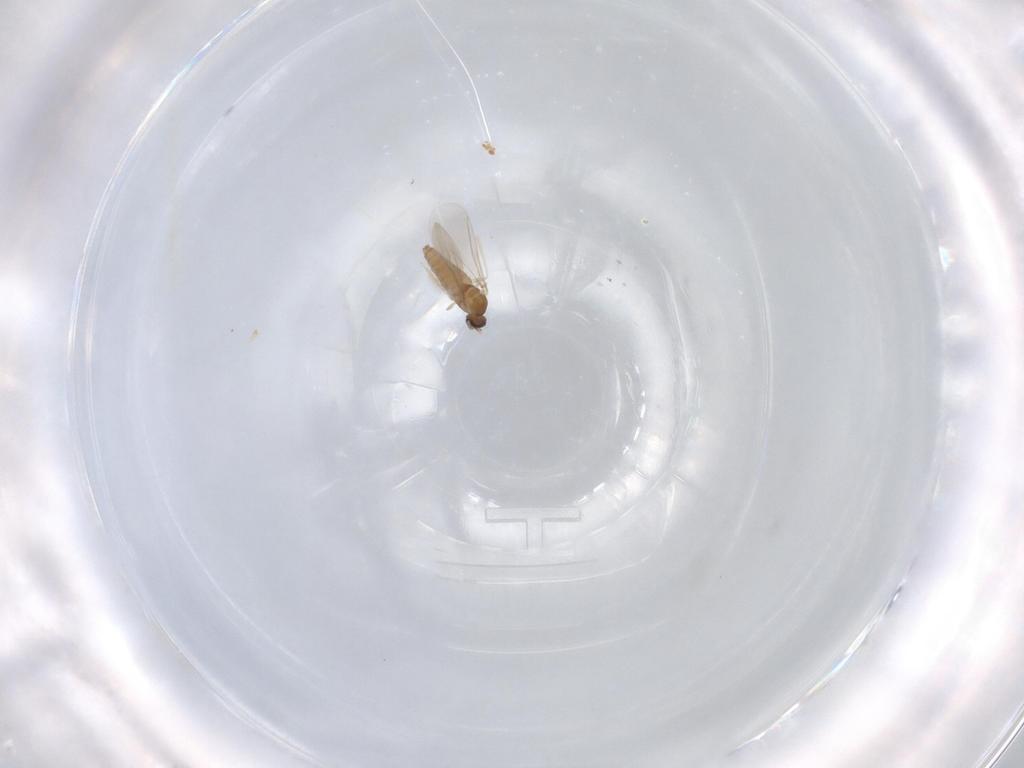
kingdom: Animalia
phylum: Arthropoda
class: Insecta
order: Diptera
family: Cecidomyiidae
